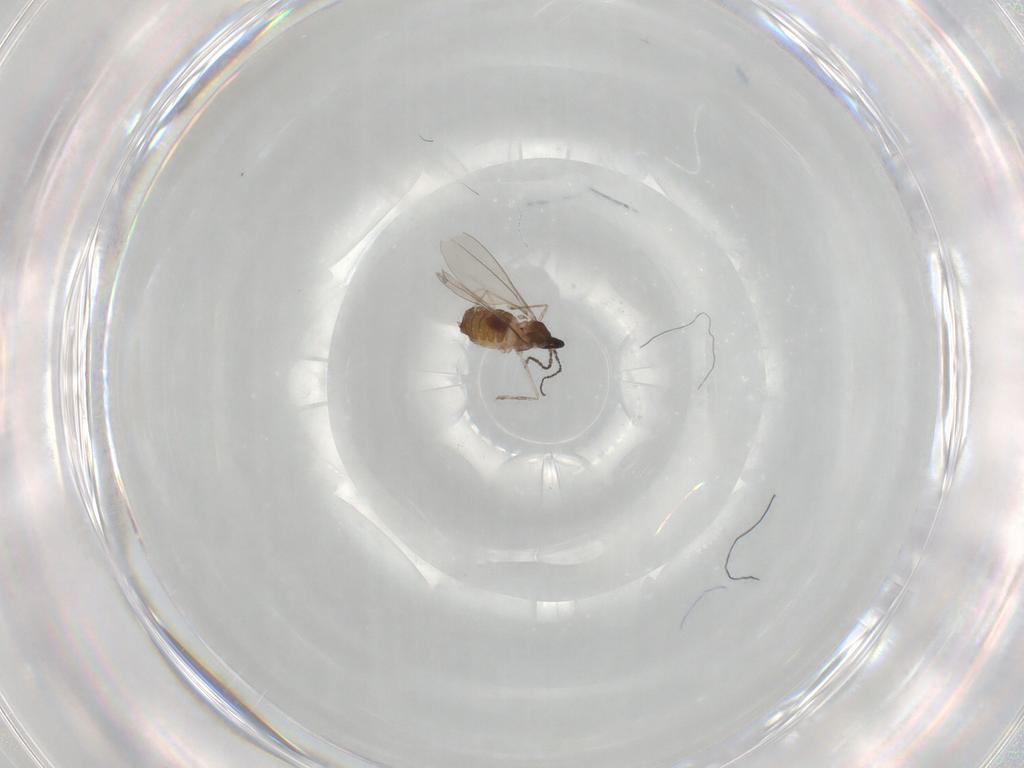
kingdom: Animalia
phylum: Arthropoda
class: Insecta
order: Diptera
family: Cecidomyiidae
